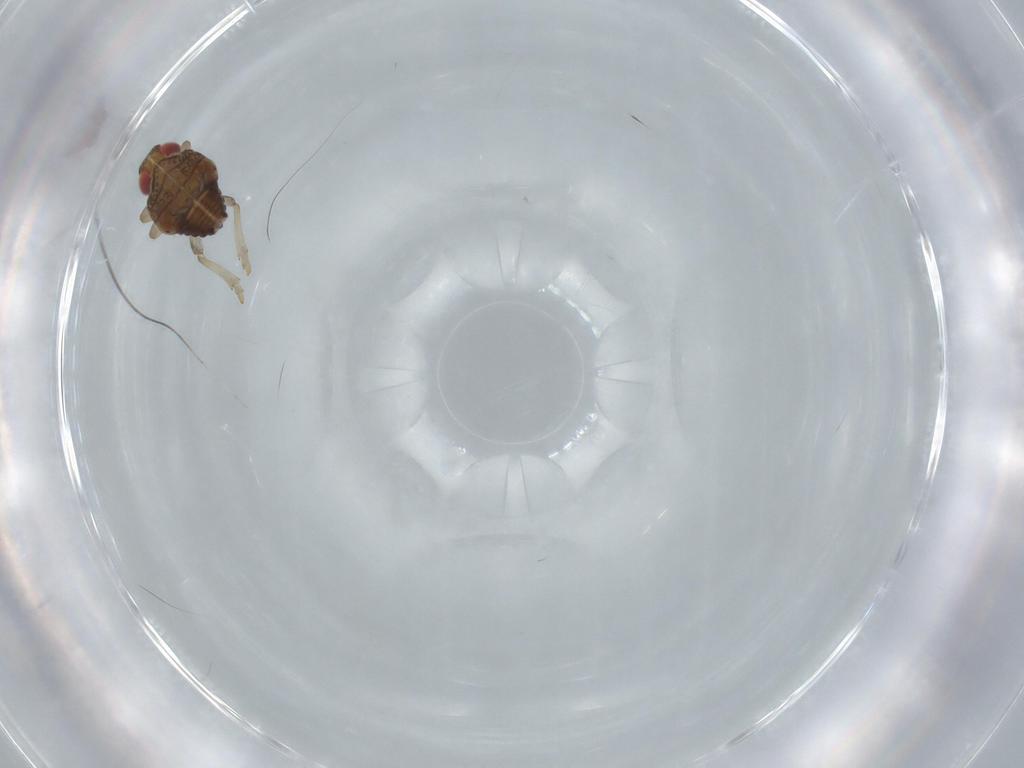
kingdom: Animalia
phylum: Arthropoda
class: Insecta
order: Hemiptera
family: Issidae
